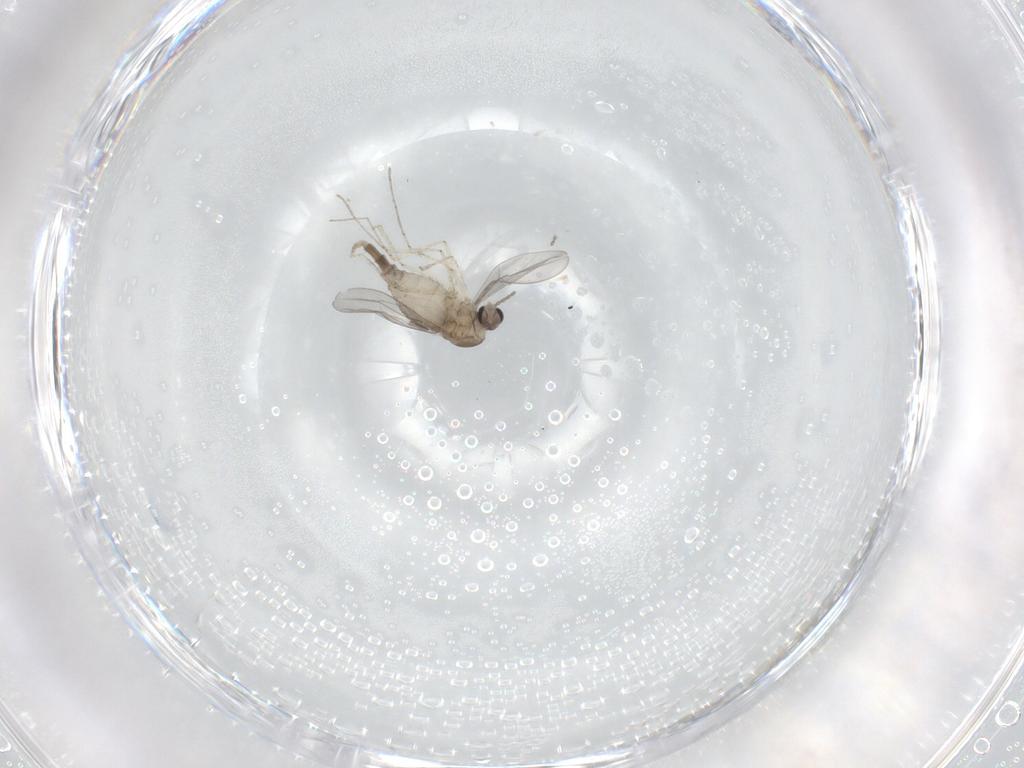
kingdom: Animalia
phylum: Arthropoda
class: Insecta
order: Diptera
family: Cecidomyiidae
